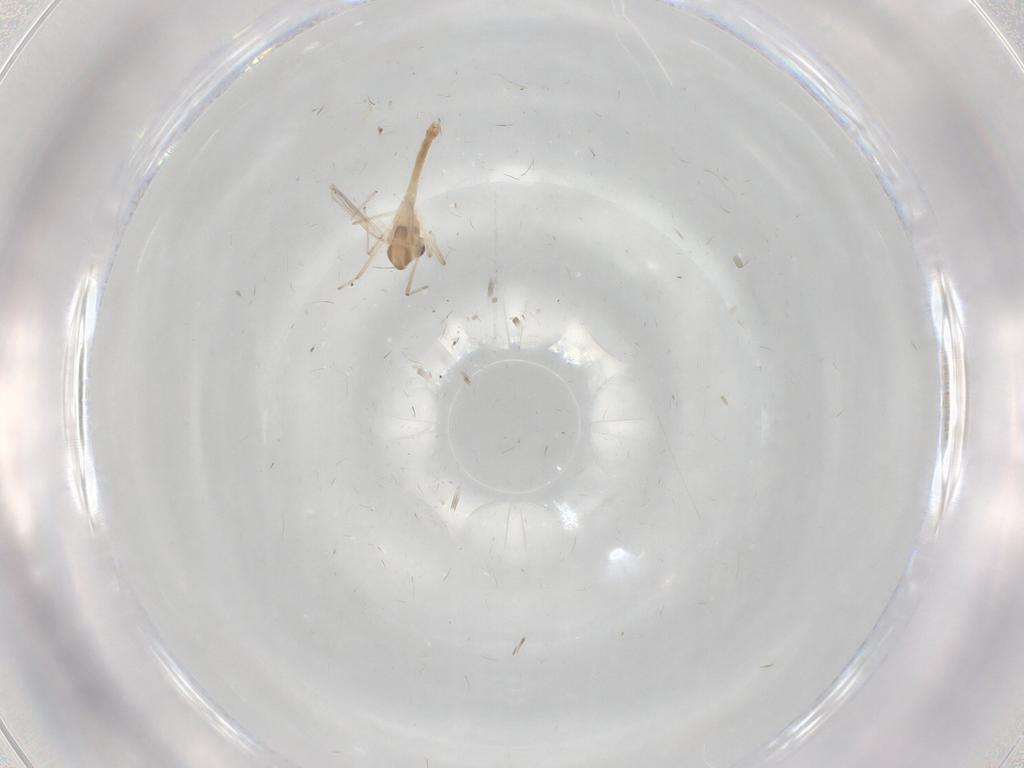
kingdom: Animalia
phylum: Arthropoda
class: Insecta
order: Diptera
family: Chironomidae
